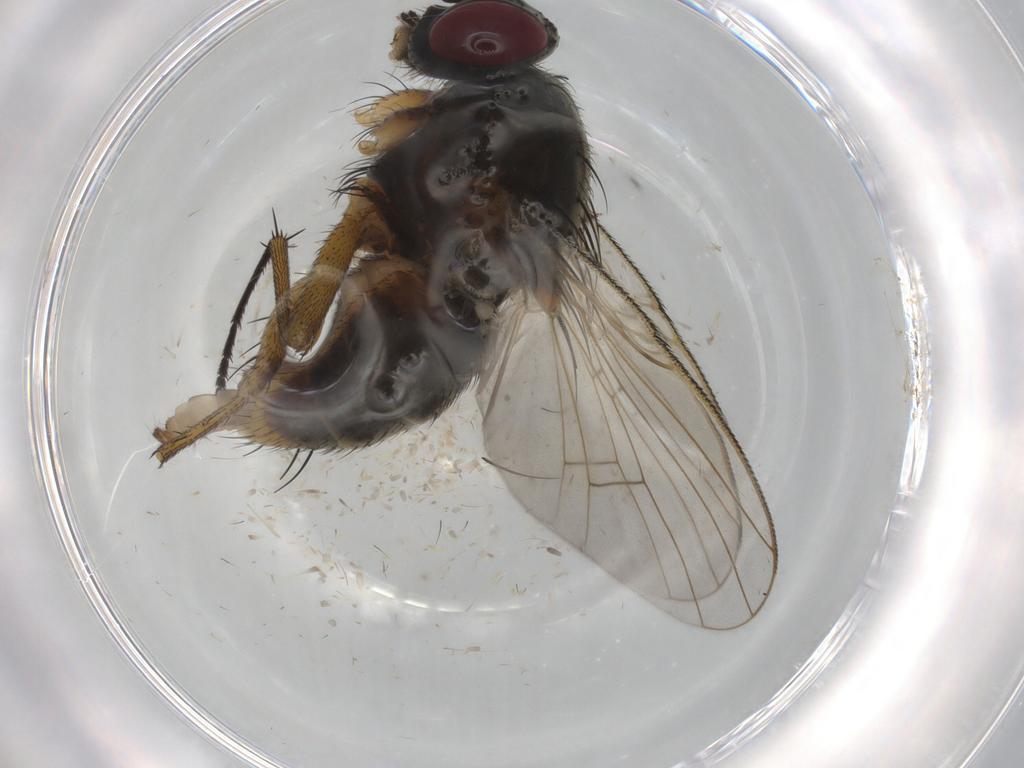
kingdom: Animalia
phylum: Arthropoda
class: Insecta
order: Diptera
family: Muscidae
